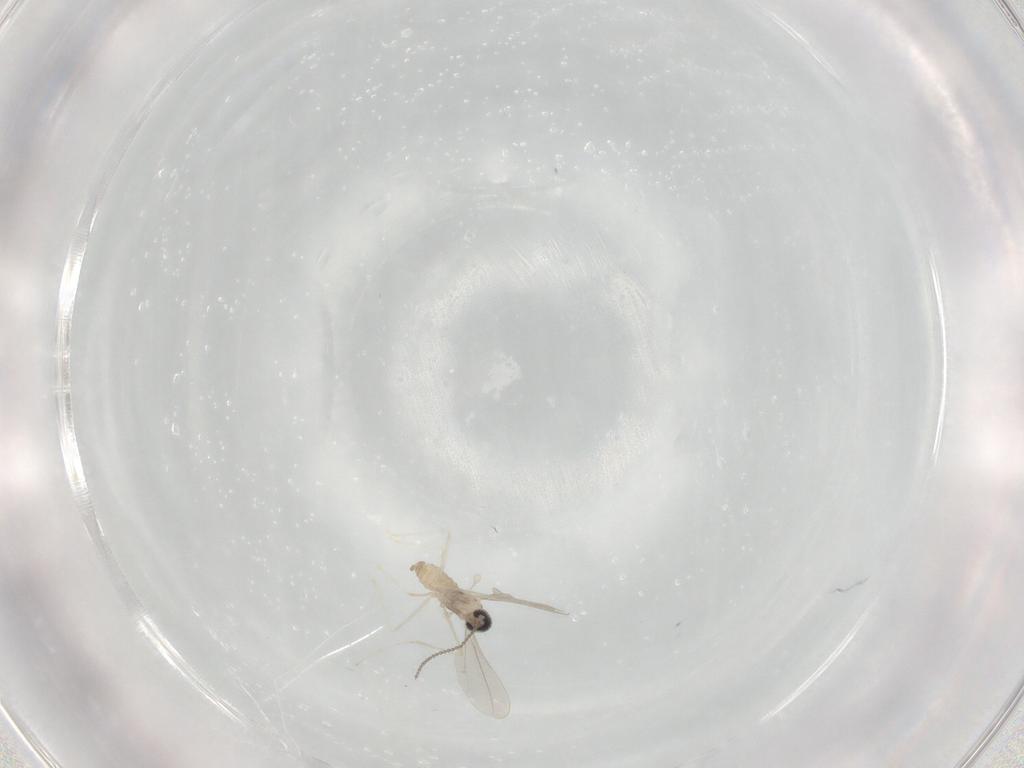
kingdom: Animalia
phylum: Arthropoda
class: Insecta
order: Diptera
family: Cecidomyiidae
